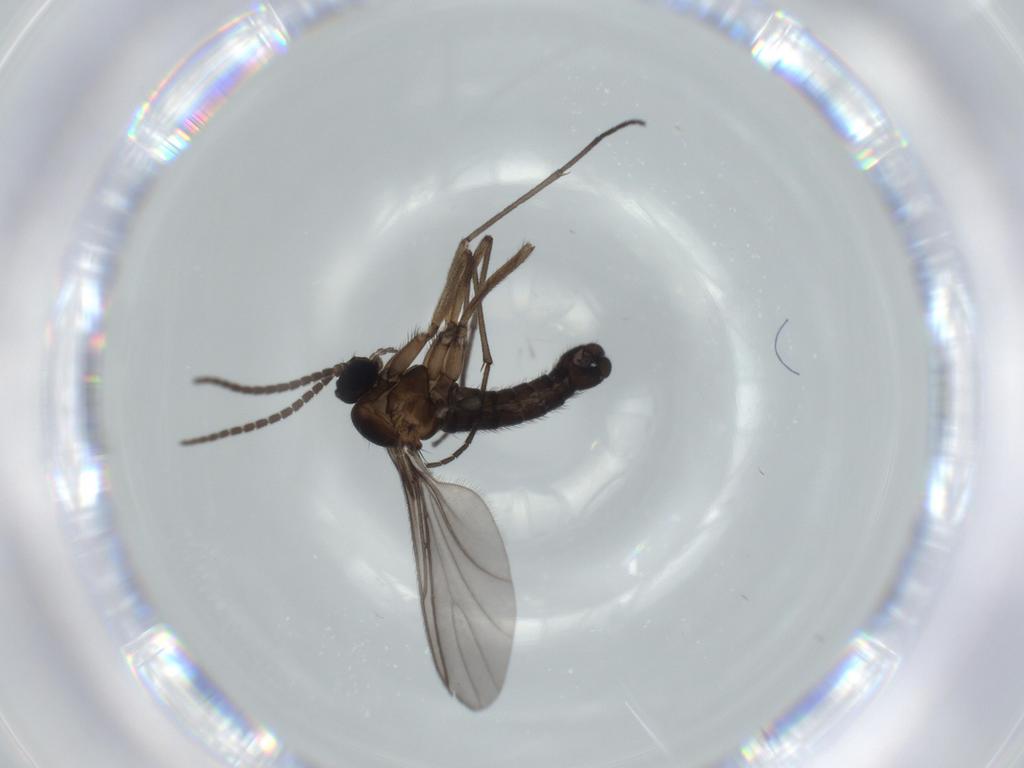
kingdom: Animalia
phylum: Arthropoda
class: Insecta
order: Diptera
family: Sciaridae
